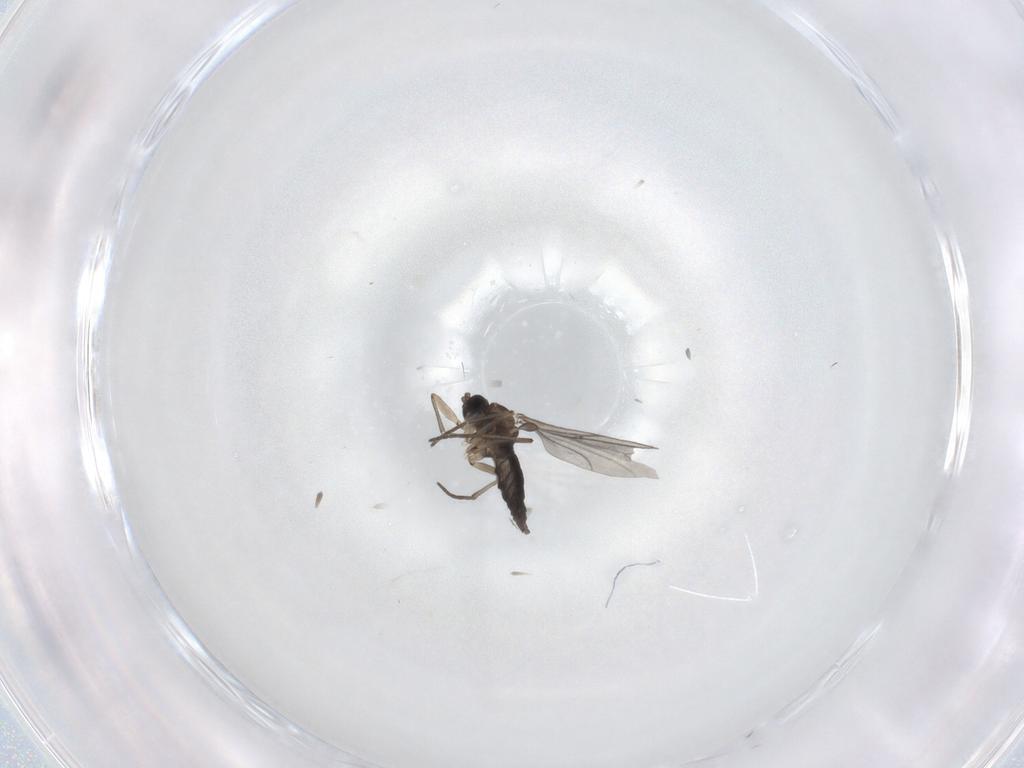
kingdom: Animalia
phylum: Arthropoda
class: Insecta
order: Diptera
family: Sciaridae
